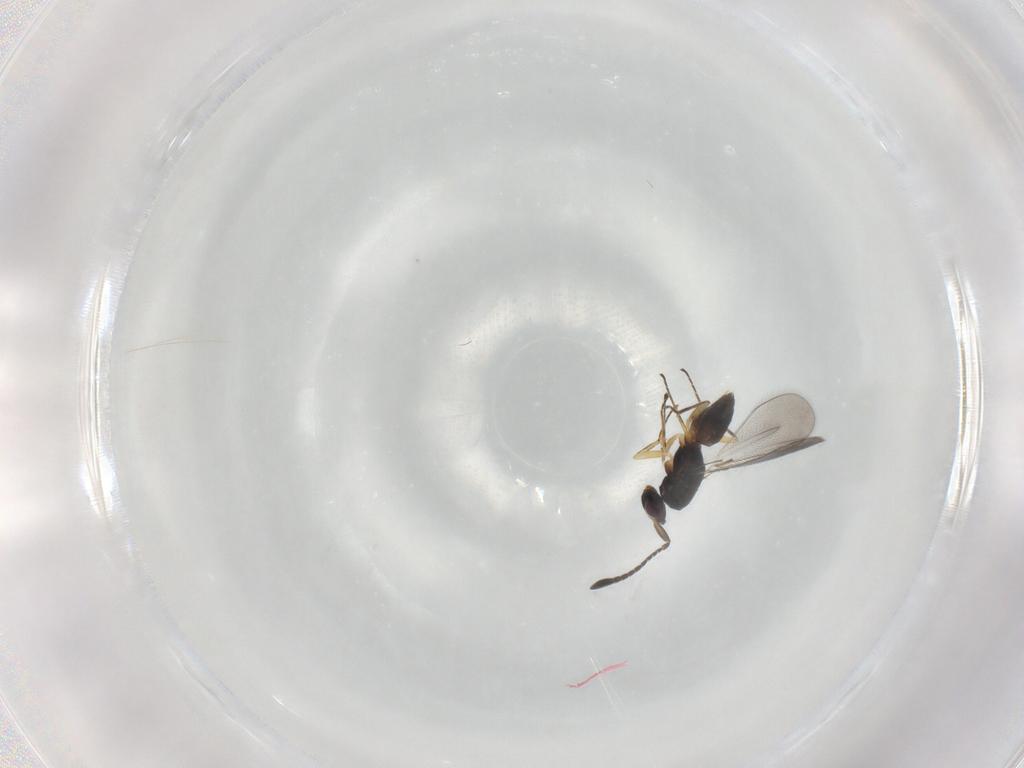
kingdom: Animalia
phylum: Arthropoda
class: Insecta
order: Hymenoptera
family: Mymaridae
